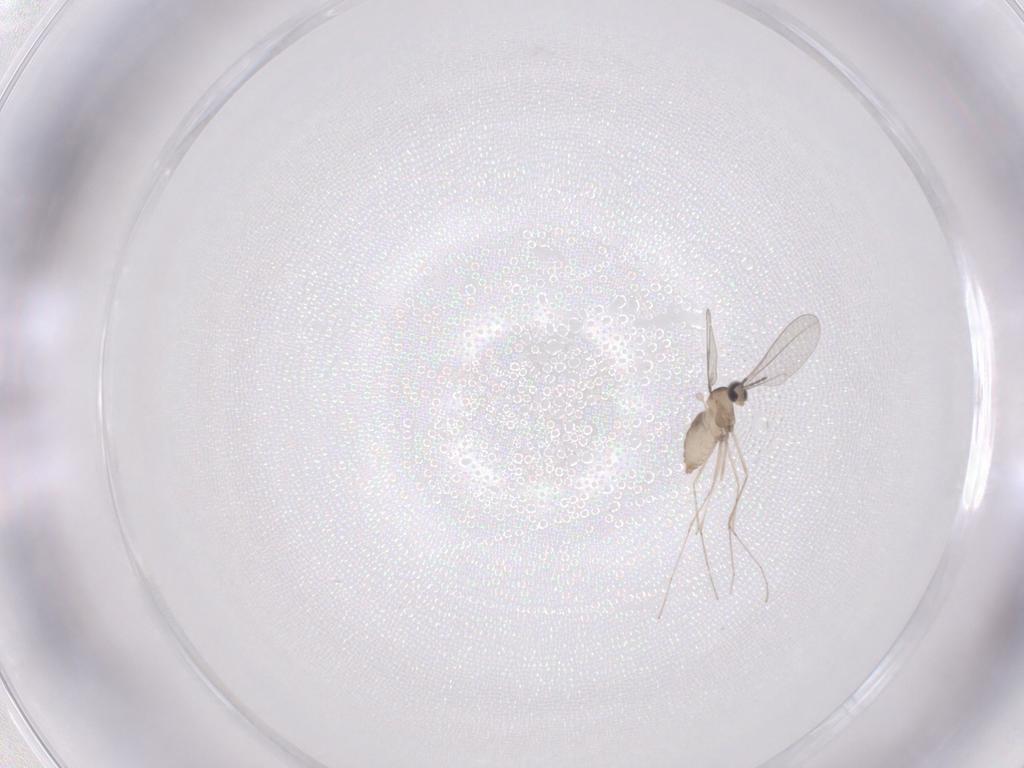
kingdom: Animalia
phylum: Arthropoda
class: Insecta
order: Diptera
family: Cecidomyiidae
